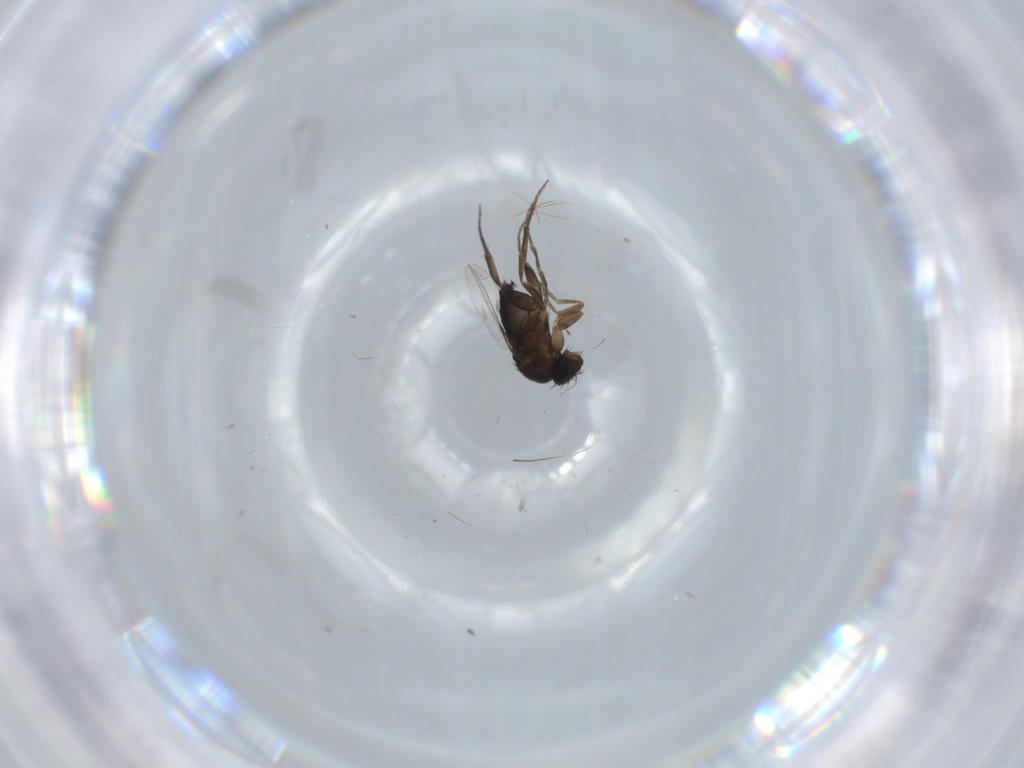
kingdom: Animalia
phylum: Arthropoda
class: Insecta
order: Diptera
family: Phoridae
